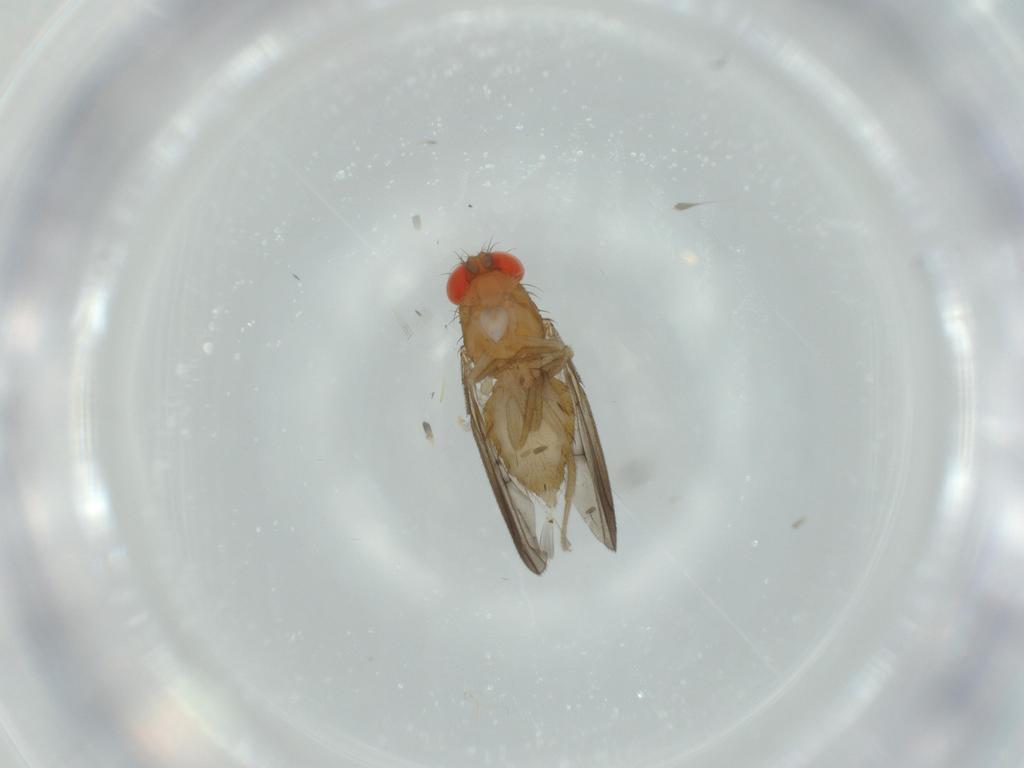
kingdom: Animalia
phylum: Arthropoda
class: Insecta
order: Diptera
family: Drosophilidae
